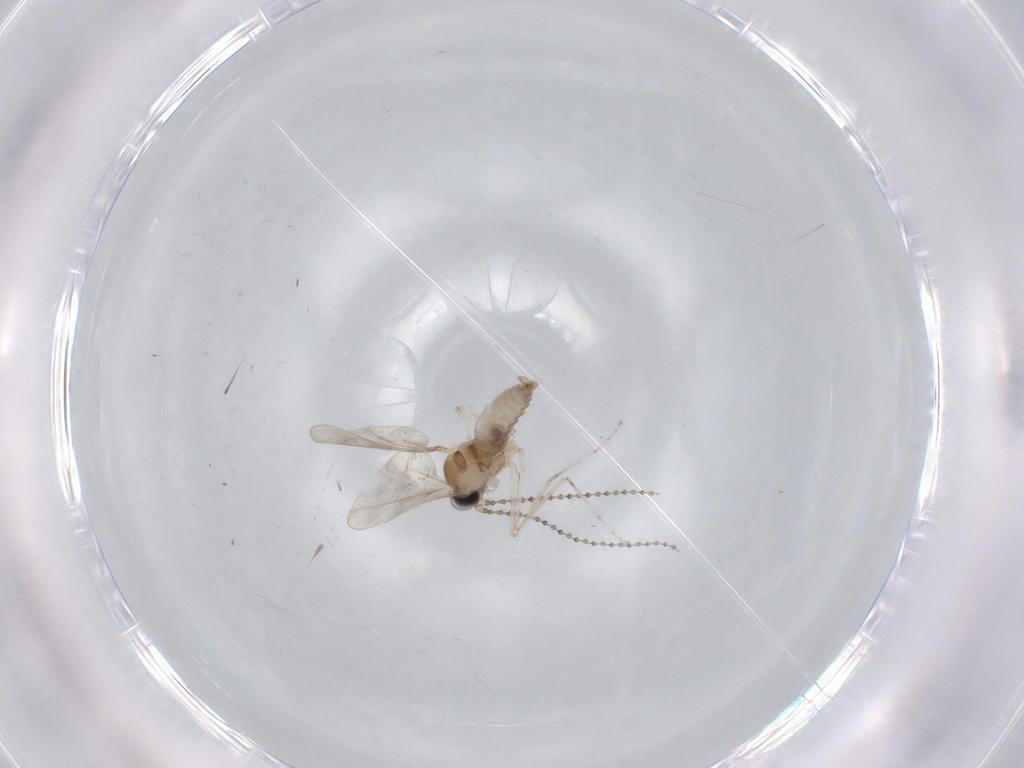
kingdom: Animalia
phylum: Arthropoda
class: Insecta
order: Diptera
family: Cecidomyiidae
